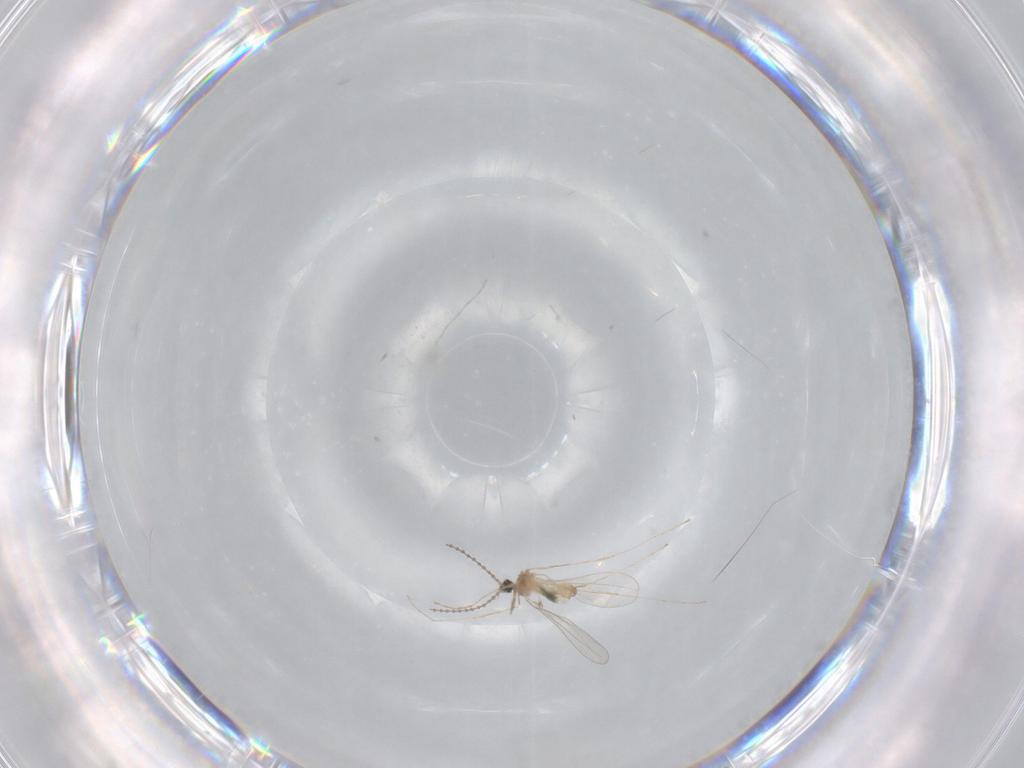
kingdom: Animalia
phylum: Arthropoda
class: Insecta
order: Diptera
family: Cecidomyiidae
